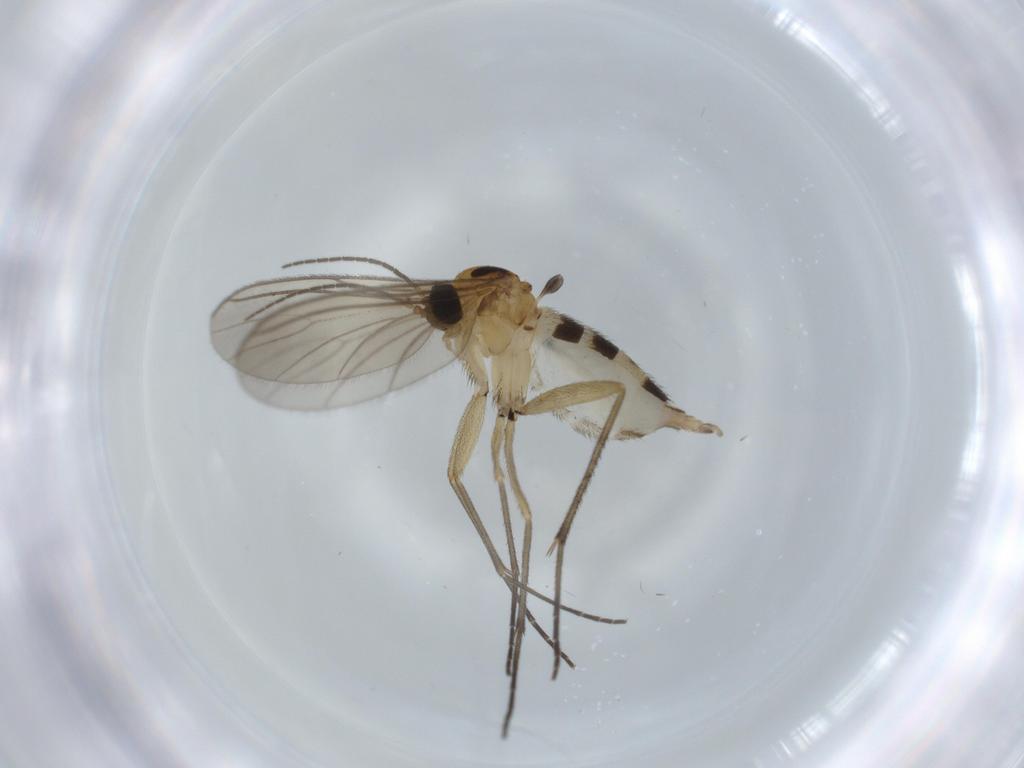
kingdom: Animalia
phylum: Arthropoda
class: Insecta
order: Diptera
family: Sciaridae
